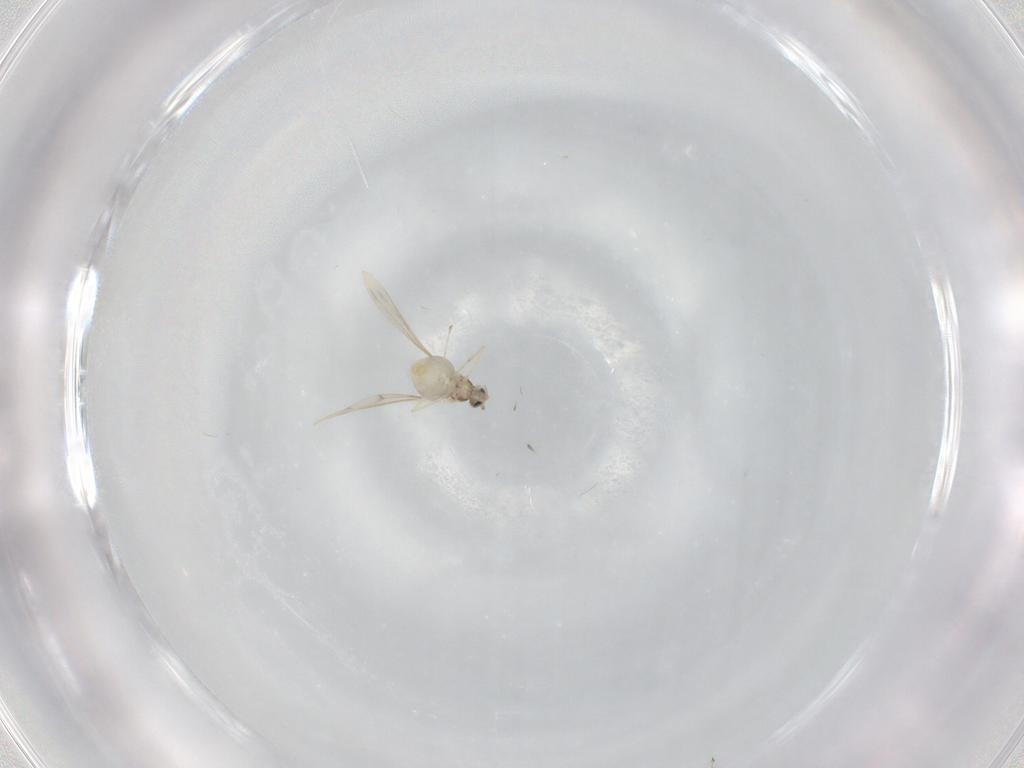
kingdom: Animalia
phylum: Arthropoda
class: Insecta
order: Diptera
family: Cecidomyiidae
